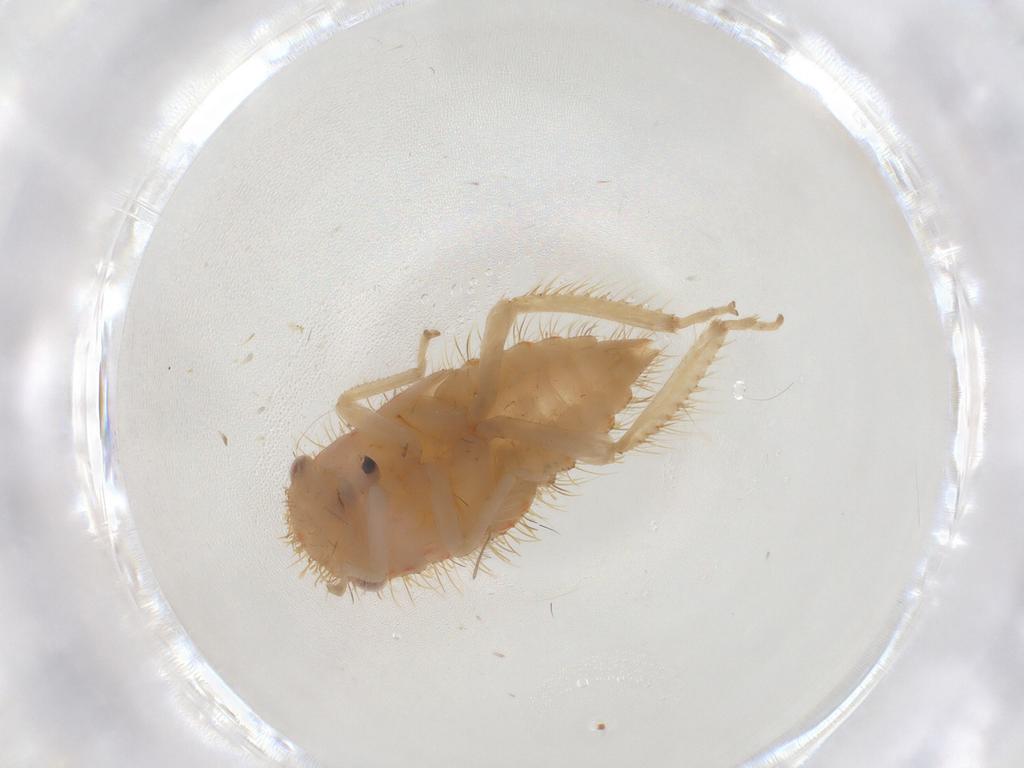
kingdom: Animalia
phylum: Arthropoda
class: Insecta
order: Hemiptera
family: Cicadellidae
